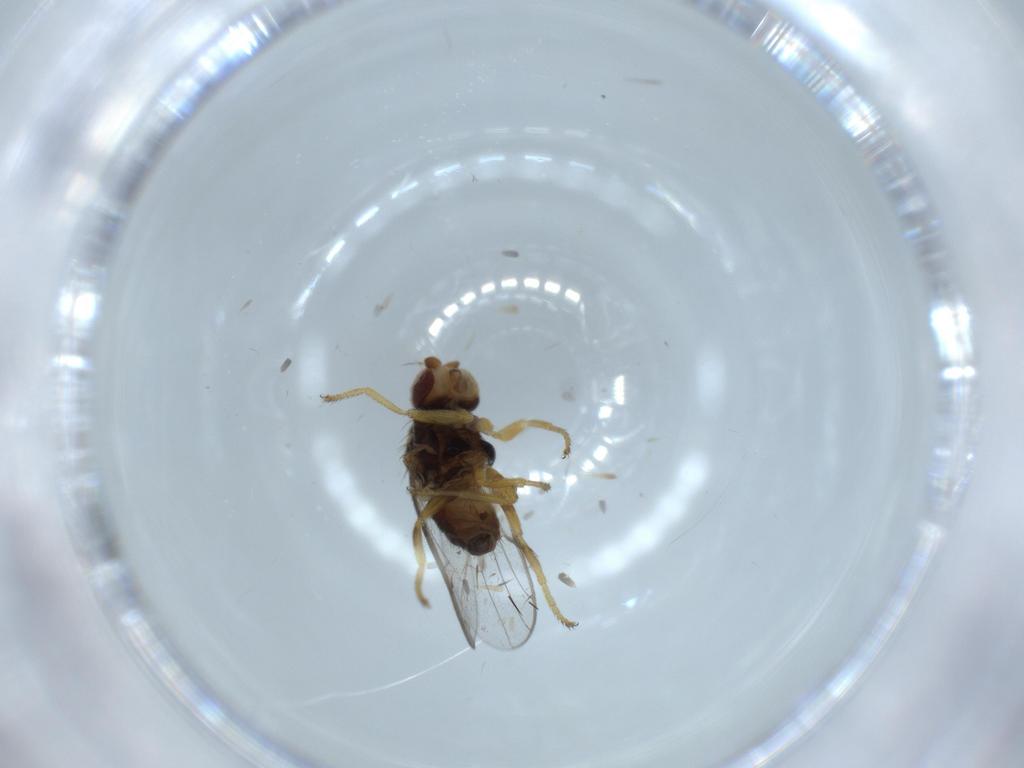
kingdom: Animalia
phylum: Arthropoda
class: Insecta
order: Diptera
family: Chloropidae
